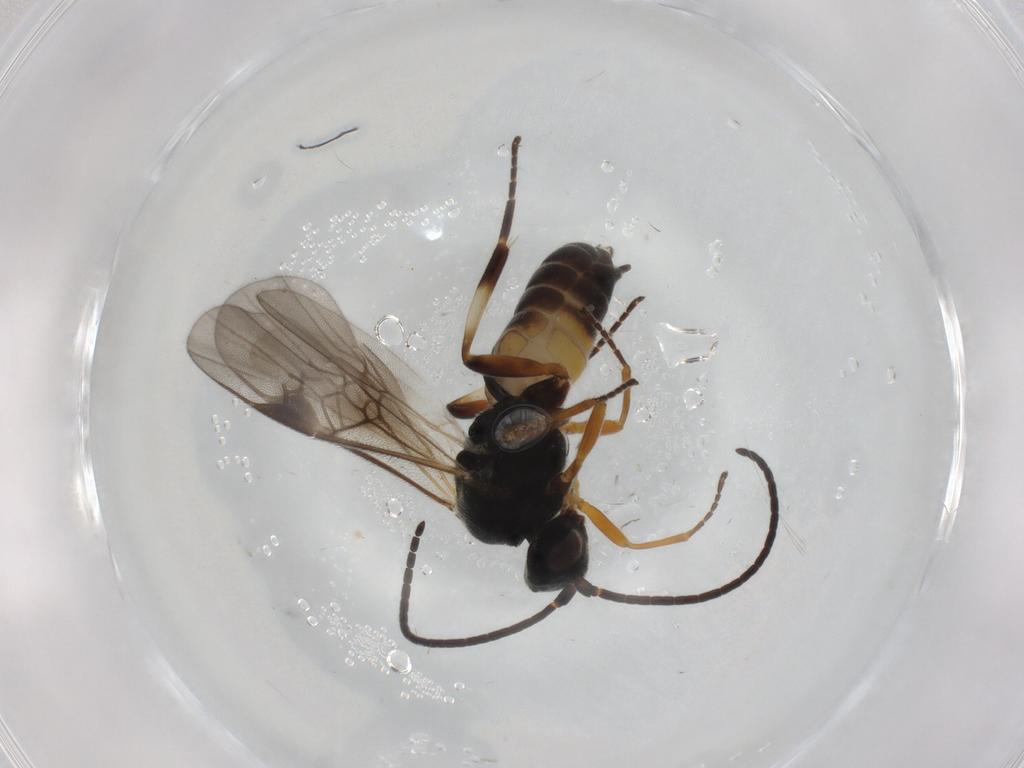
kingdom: Animalia
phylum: Arthropoda
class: Insecta
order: Hymenoptera
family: Braconidae
